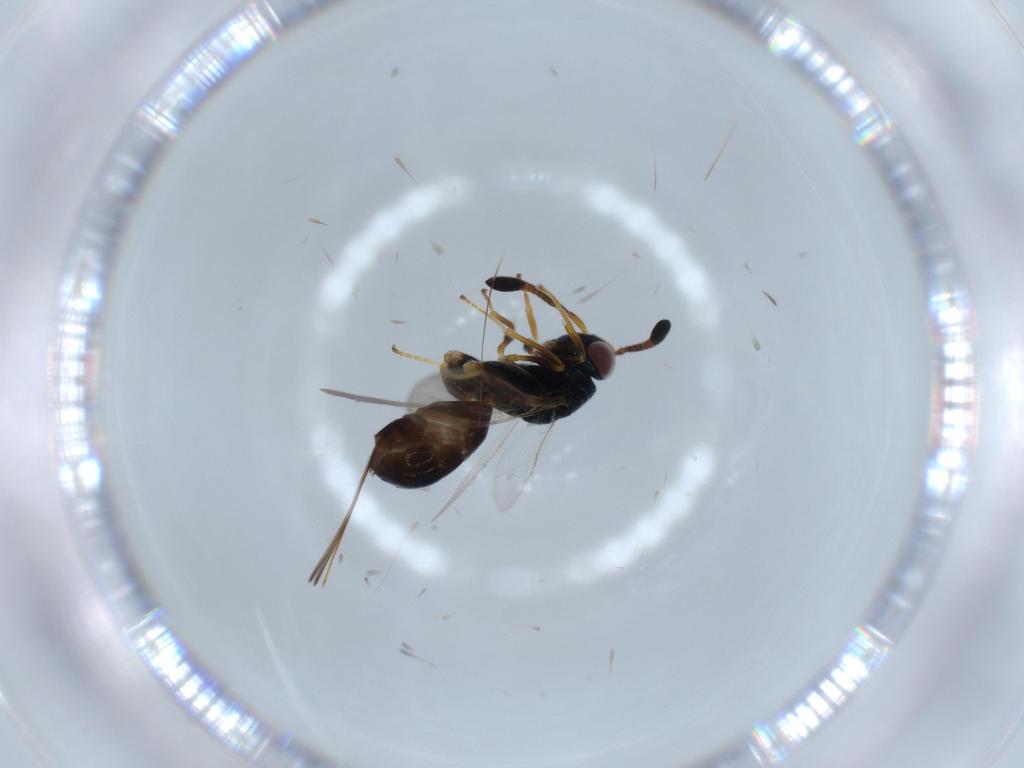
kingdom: Animalia
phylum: Arthropoda
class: Insecta
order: Hymenoptera
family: Torymidae
